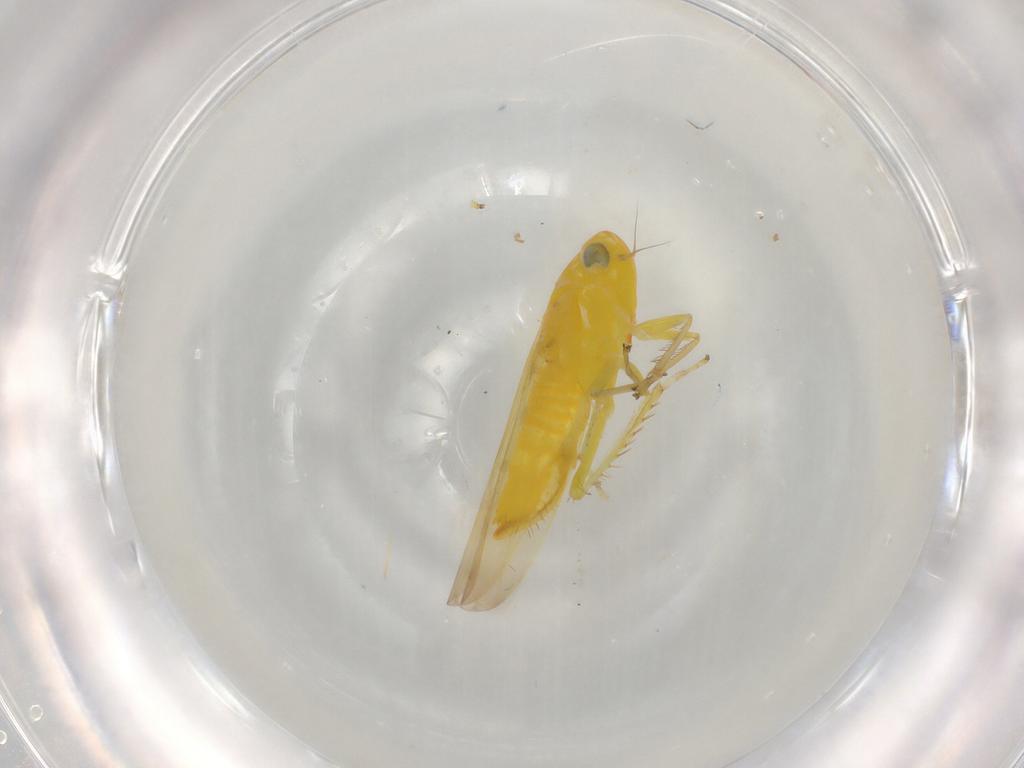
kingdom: Animalia
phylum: Arthropoda
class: Insecta
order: Hemiptera
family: Cicadellidae
